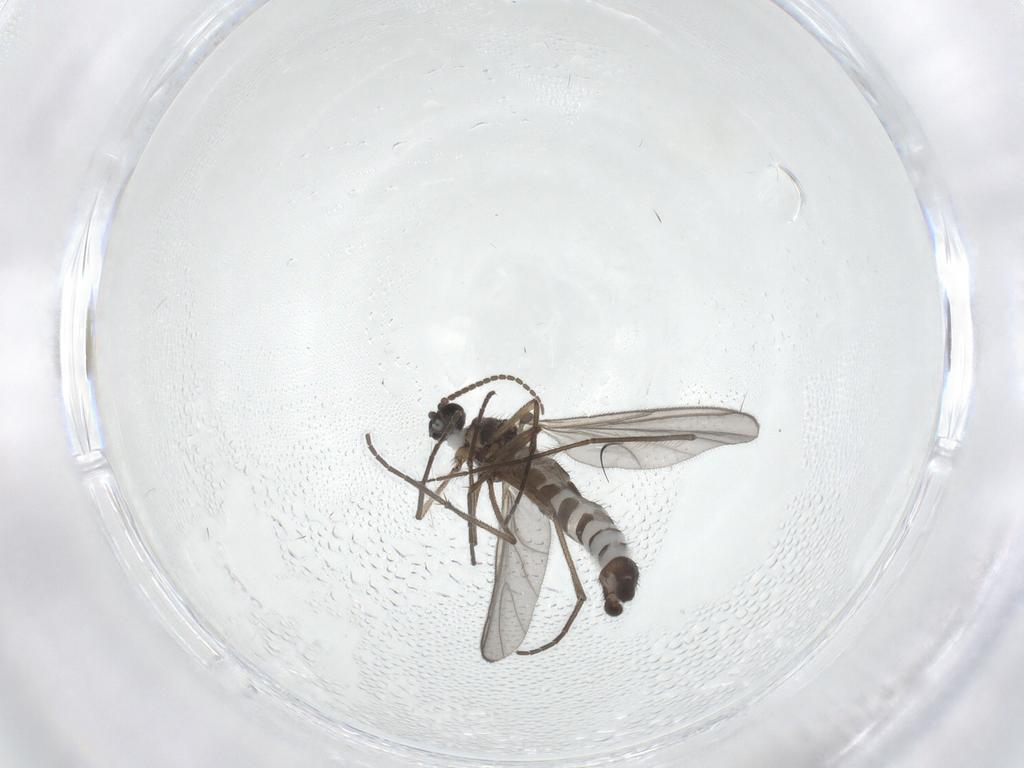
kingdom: Animalia
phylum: Arthropoda
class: Insecta
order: Diptera
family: Sciaridae
